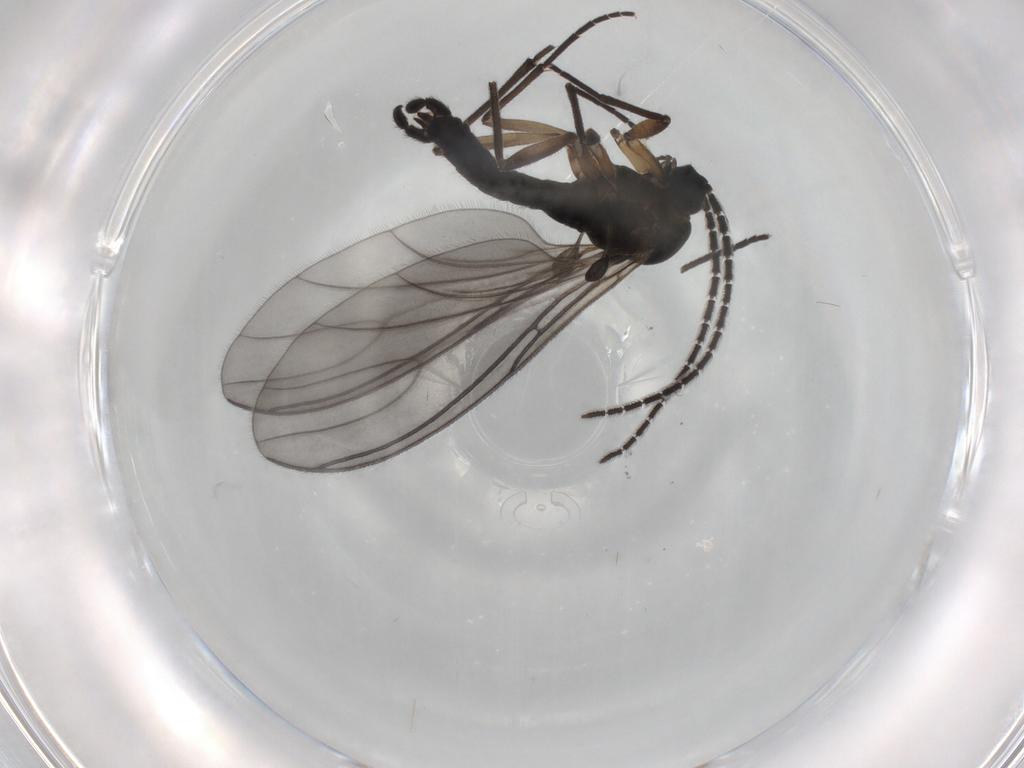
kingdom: Animalia
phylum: Arthropoda
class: Insecta
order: Diptera
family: Sciaridae
